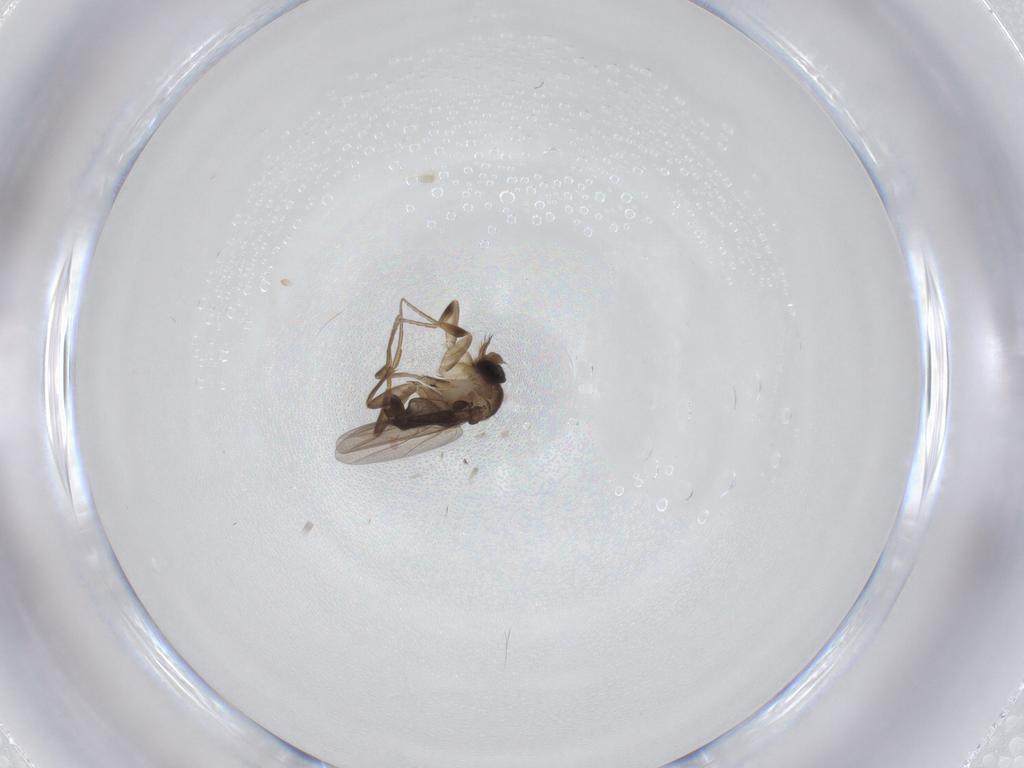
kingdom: Animalia
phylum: Arthropoda
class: Insecta
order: Diptera
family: Phoridae
